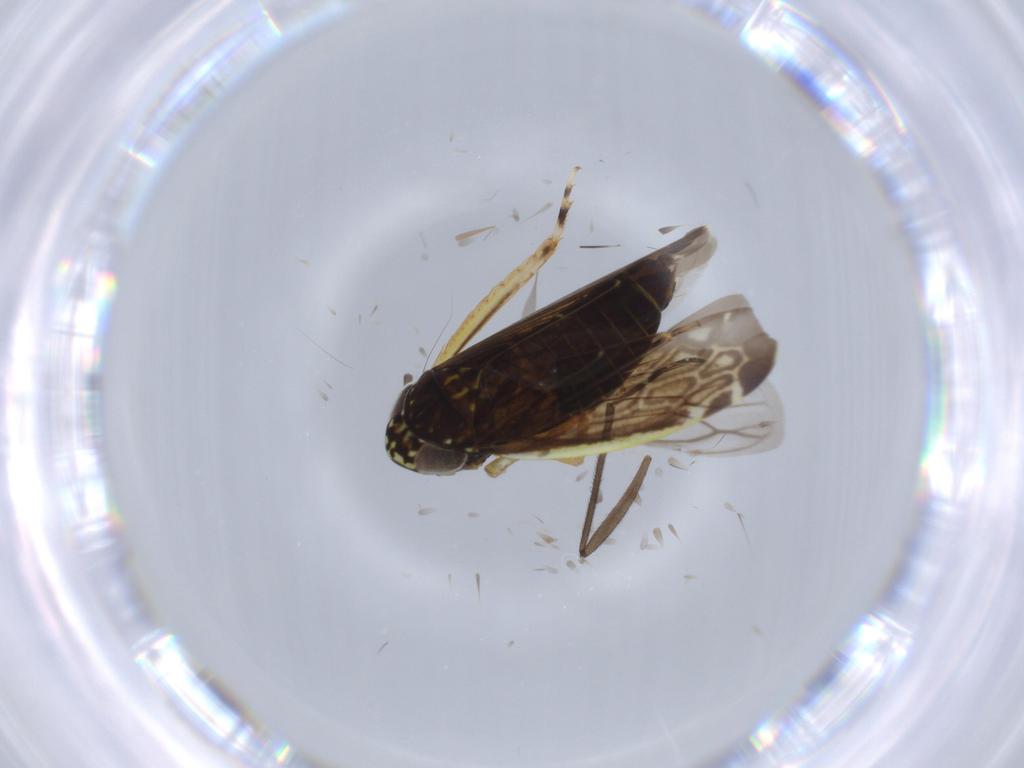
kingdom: Animalia
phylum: Arthropoda
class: Insecta
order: Hemiptera
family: Cicadellidae
